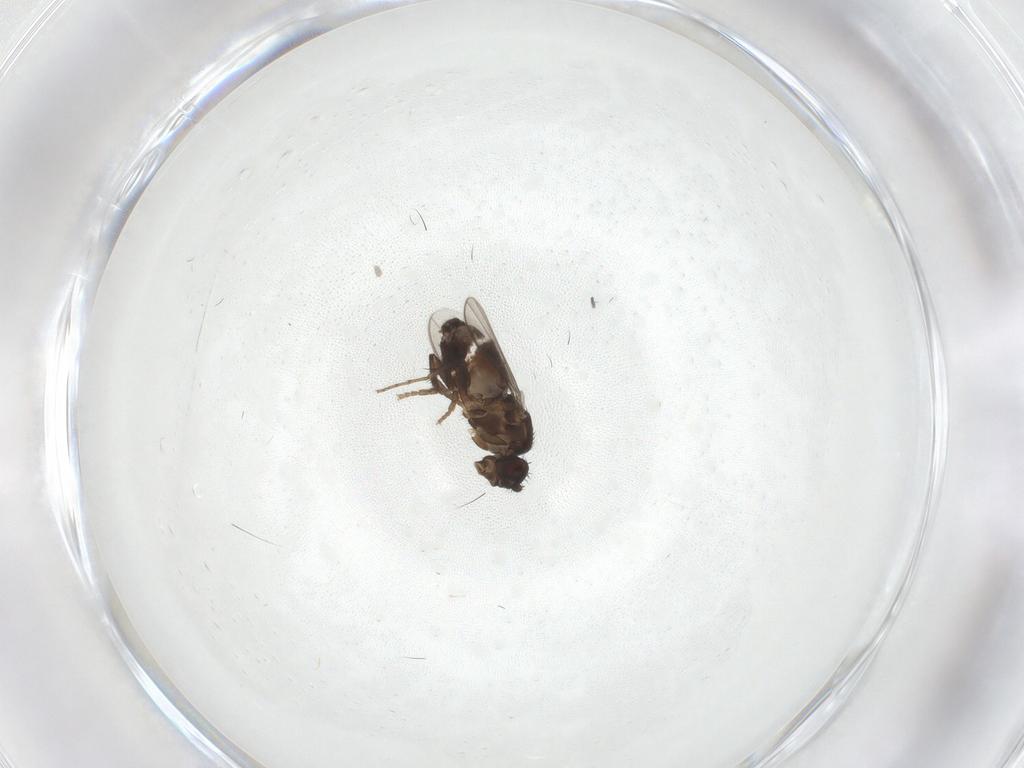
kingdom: Animalia
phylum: Arthropoda
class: Insecta
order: Diptera
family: Sphaeroceridae
